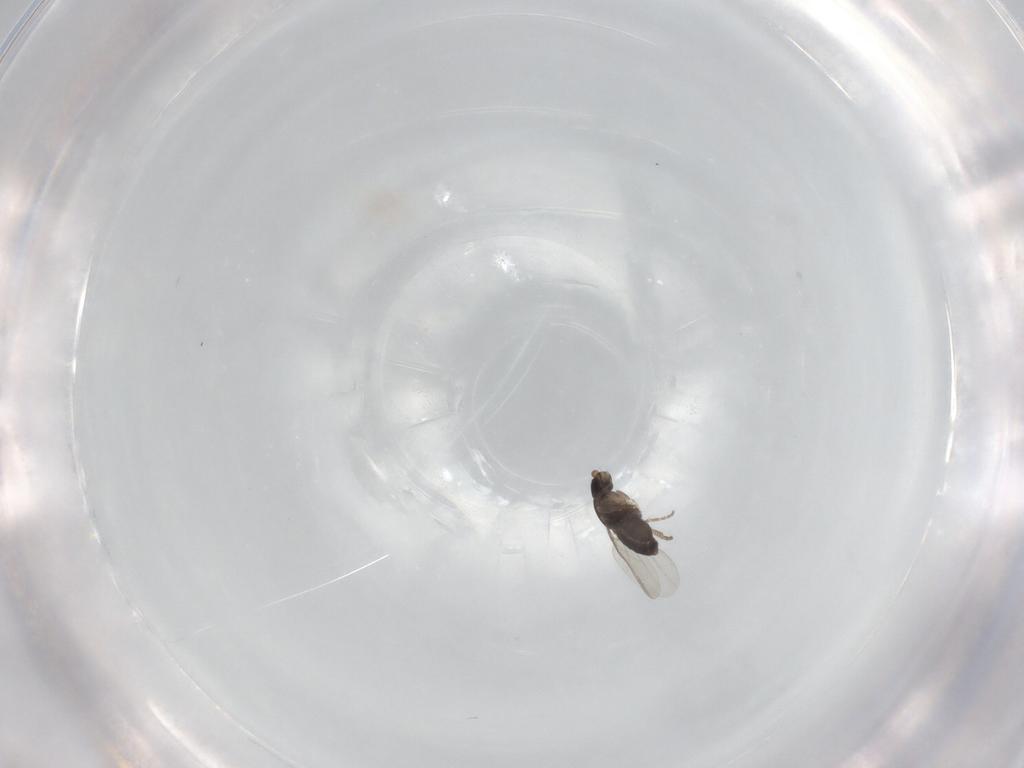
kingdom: Animalia
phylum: Arthropoda
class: Insecta
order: Diptera
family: Phoridae
